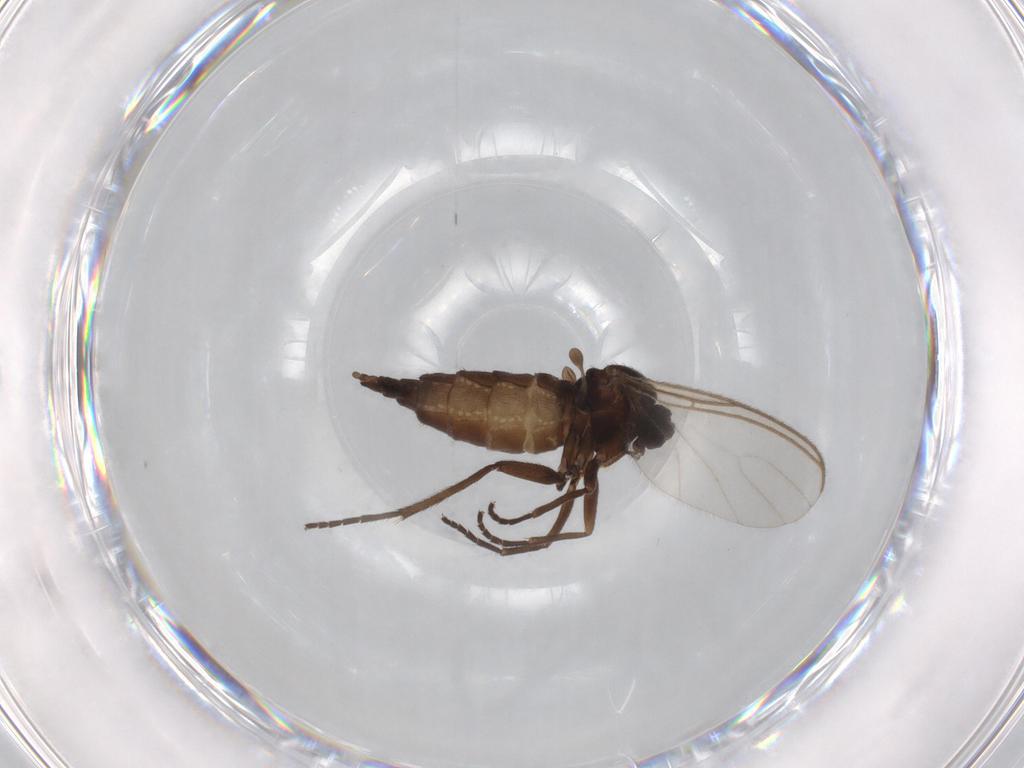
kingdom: Animalia
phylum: Arthropoda
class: Insecta
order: Diptera
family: Sciaridae
